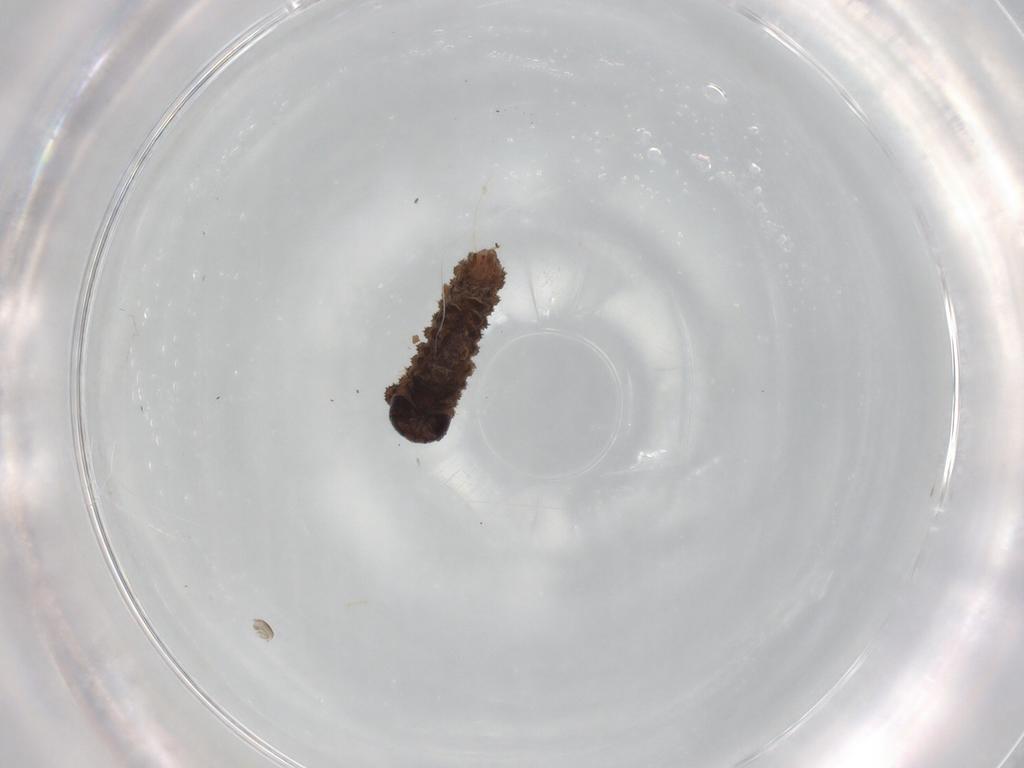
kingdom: Animalia
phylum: Arthropoda
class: Insecta
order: Lepidoptera
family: Erebidae
